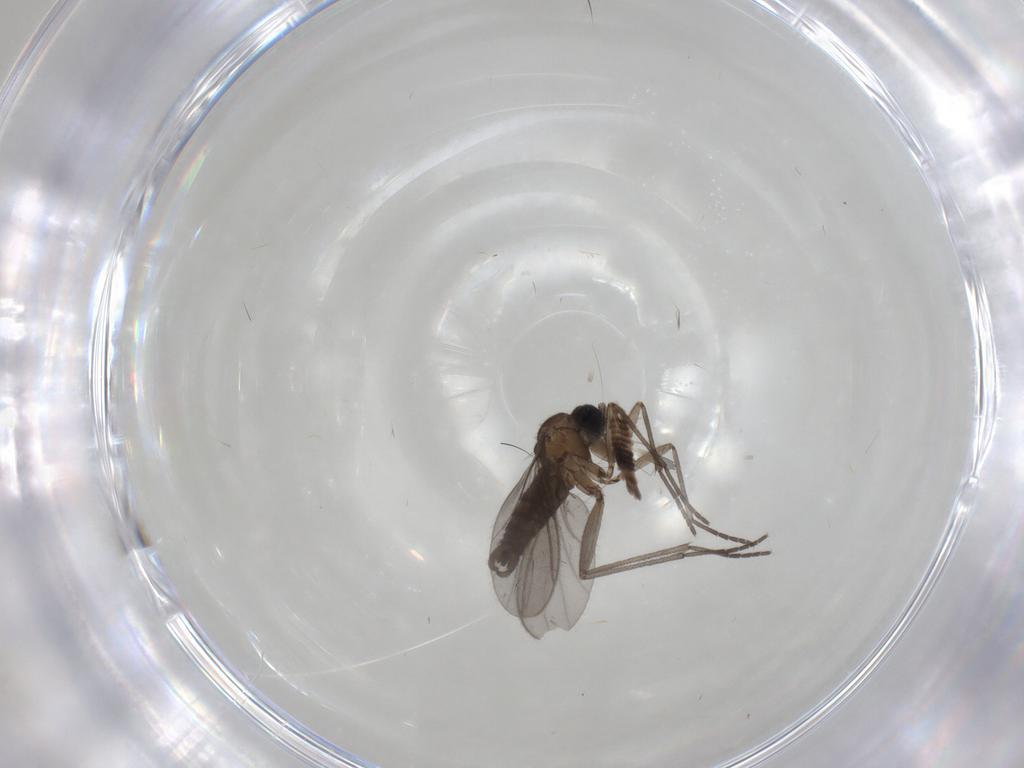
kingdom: Animalia
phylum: Arthropoda
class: Insecta
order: Diptera
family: Sciaridae
